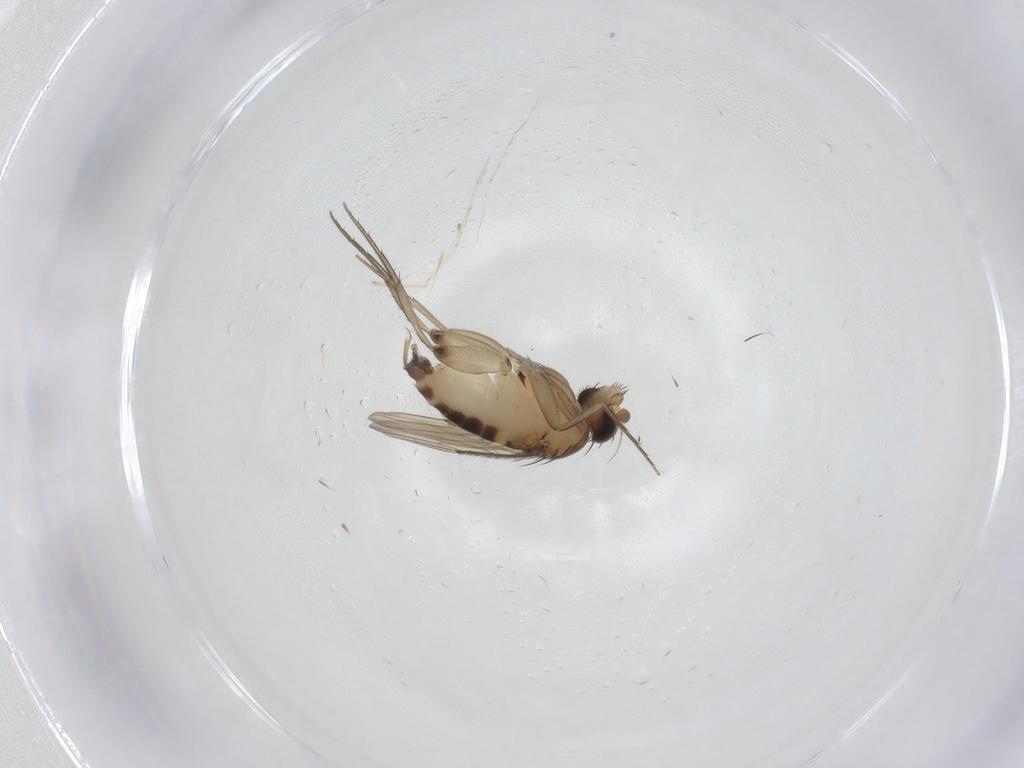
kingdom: Animalia
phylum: Arthropoda
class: Insecta
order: Diptera
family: Phoridae
